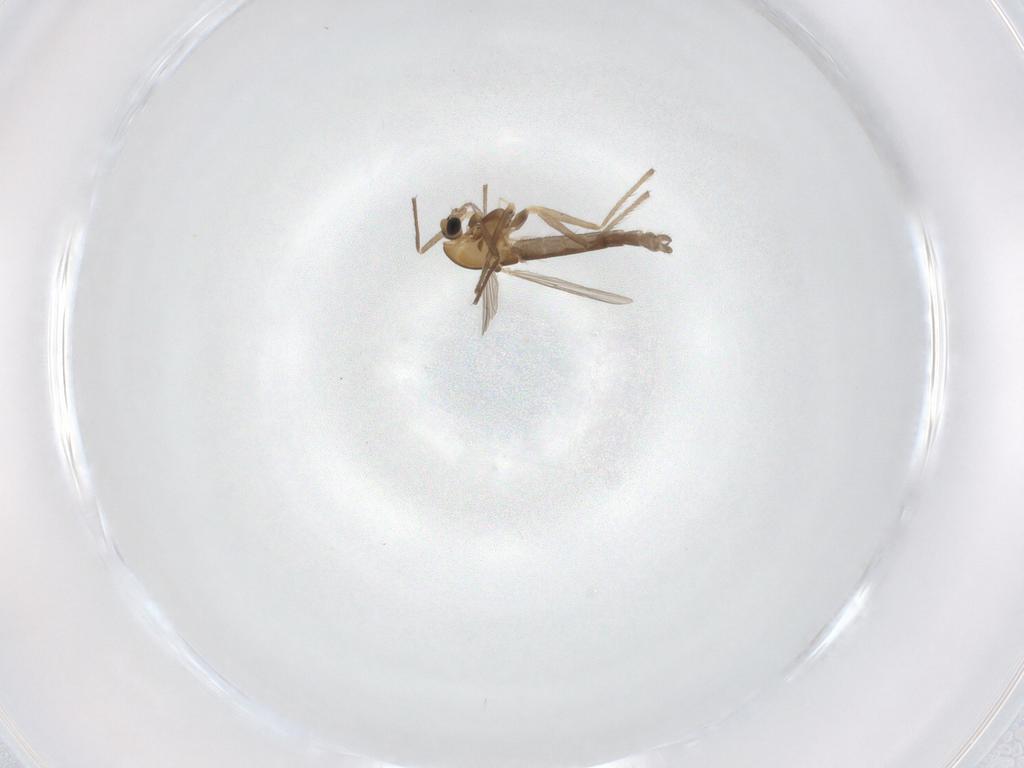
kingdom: Animalia
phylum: Arthropoda
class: Insecta
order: Diptera
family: Chironomidae
